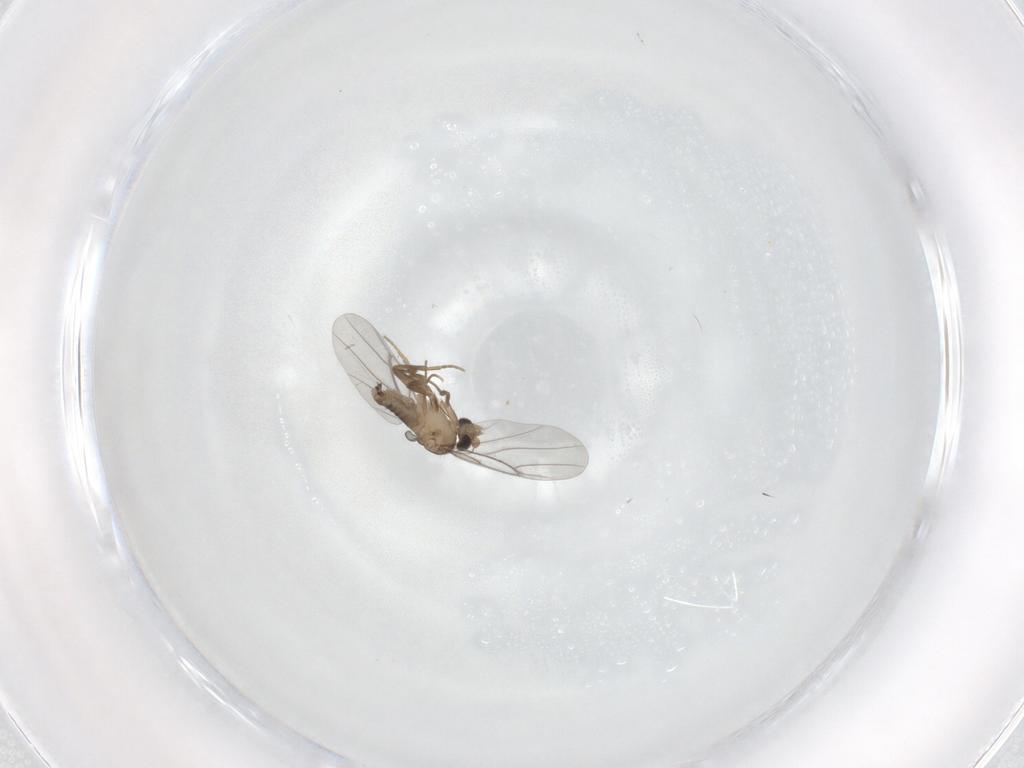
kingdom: Animalia
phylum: Arthropoda
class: Insecta
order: Diptera
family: Cecidomyiidae
